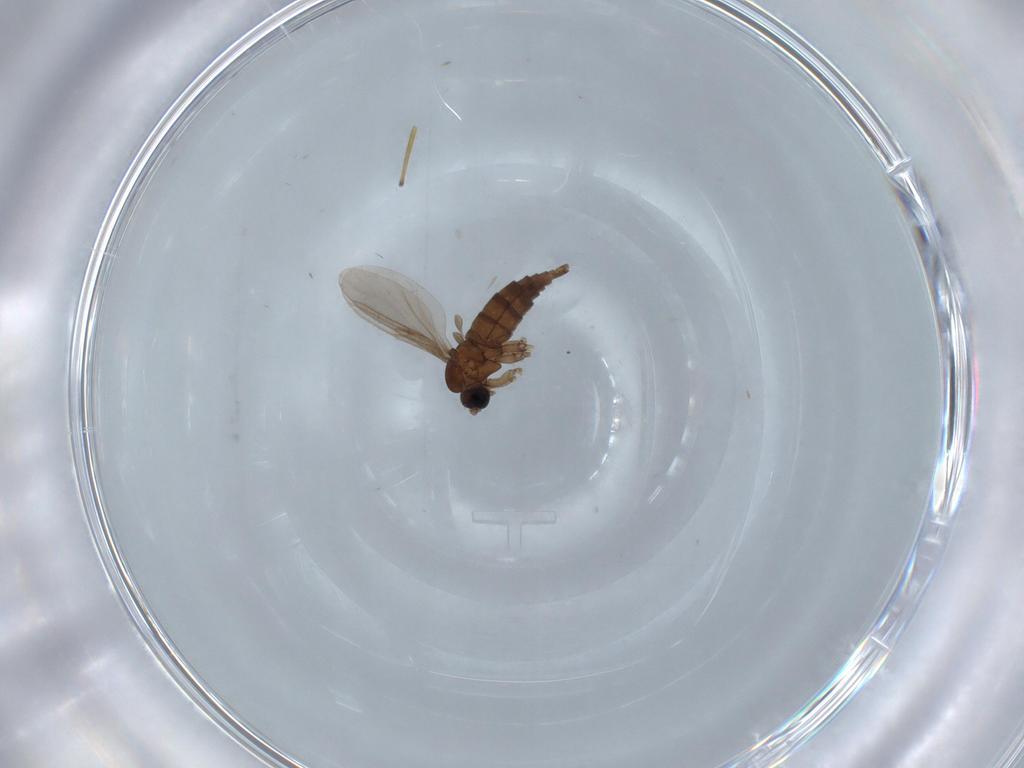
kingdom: Animalia
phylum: Arthropoda
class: Insecta
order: Diptera
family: Sciaridae
